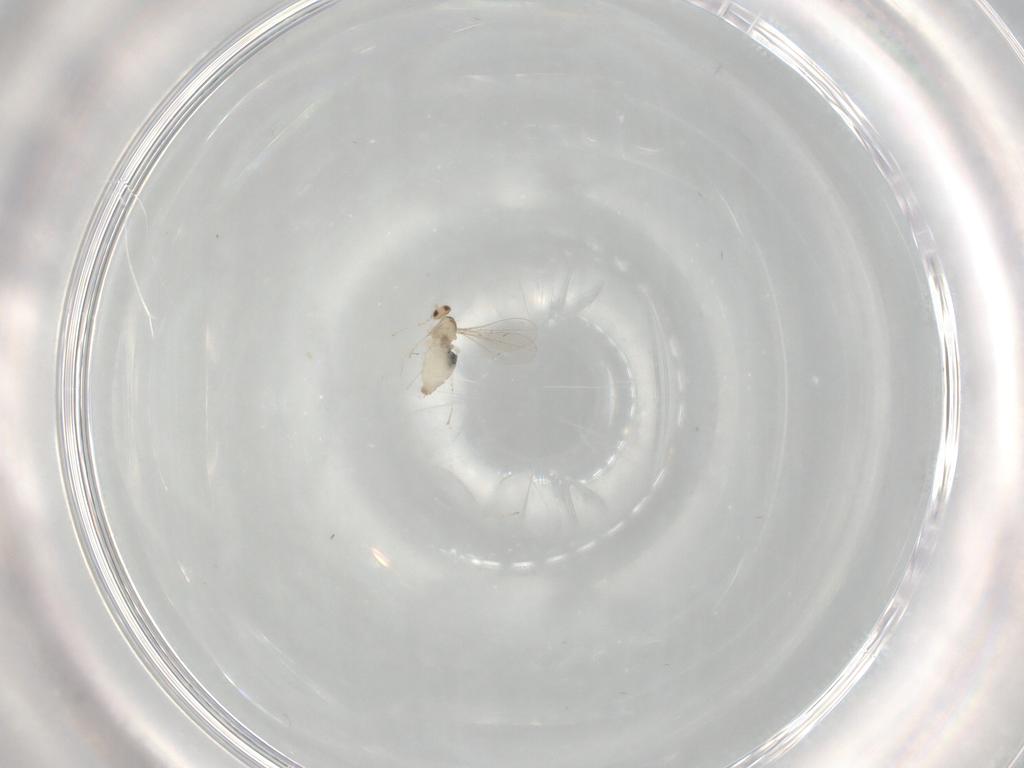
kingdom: Animalia
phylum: Arthropoda
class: Insecta
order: Diptera
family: Cecidomyiidae
